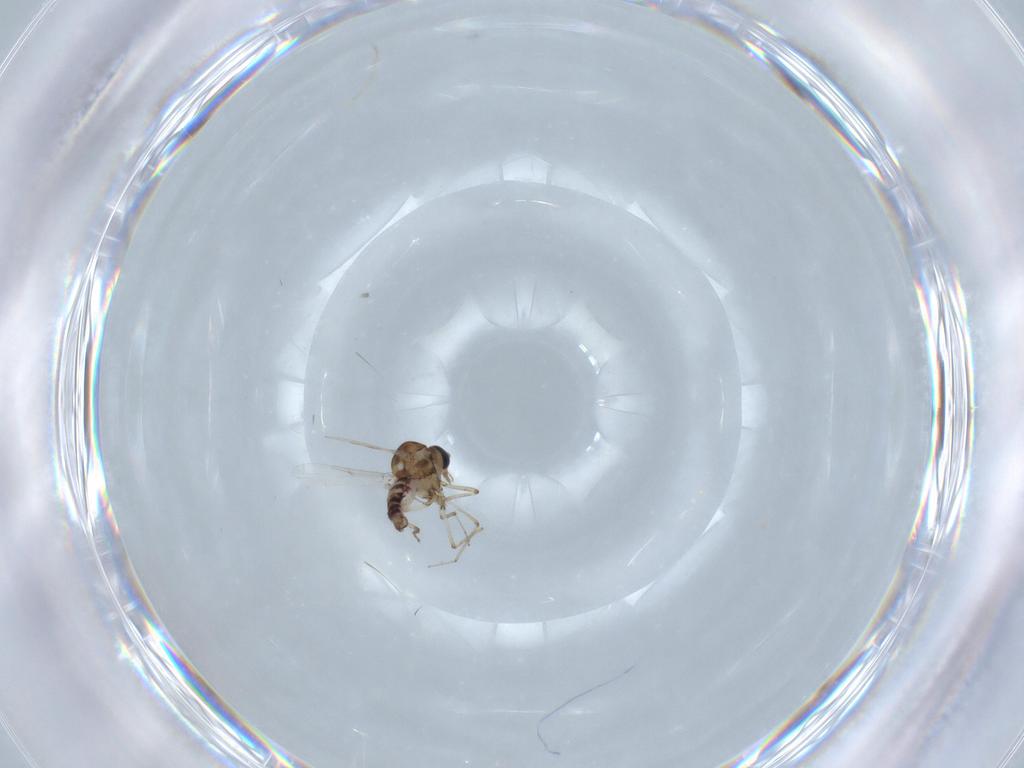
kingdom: Animalia
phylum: Arthropoda
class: Insecta
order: Diptera
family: Ceratopogonidae
